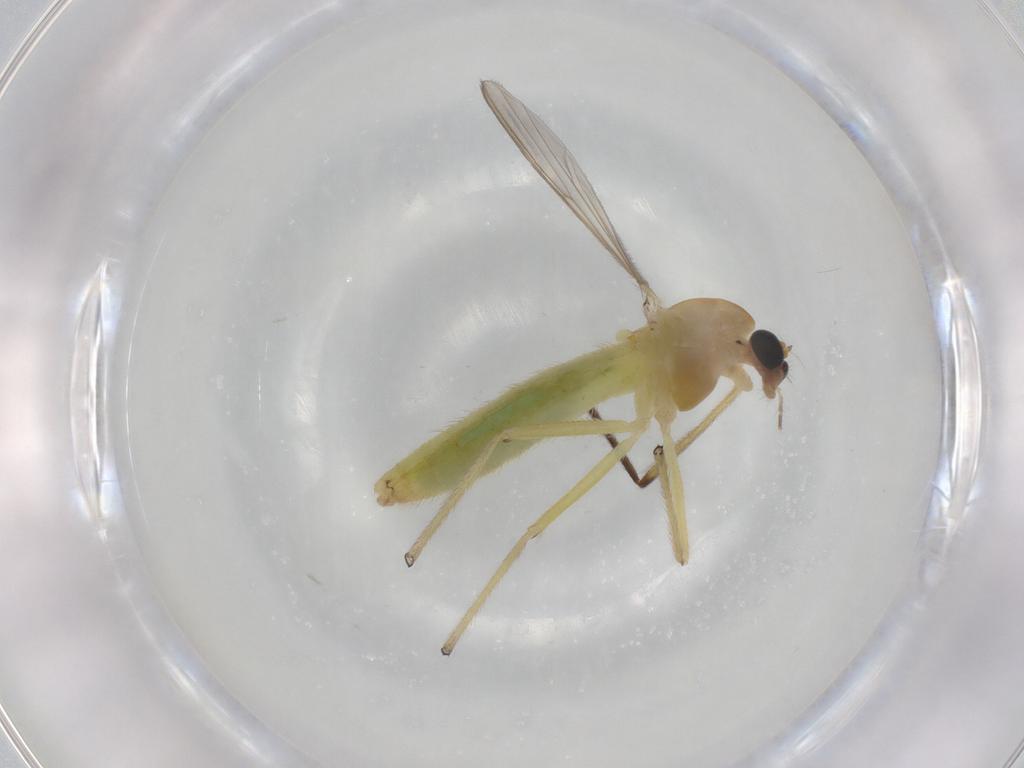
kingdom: Animalia
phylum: Arthropoda
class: Insecta
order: Diptera
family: Chironomidae
